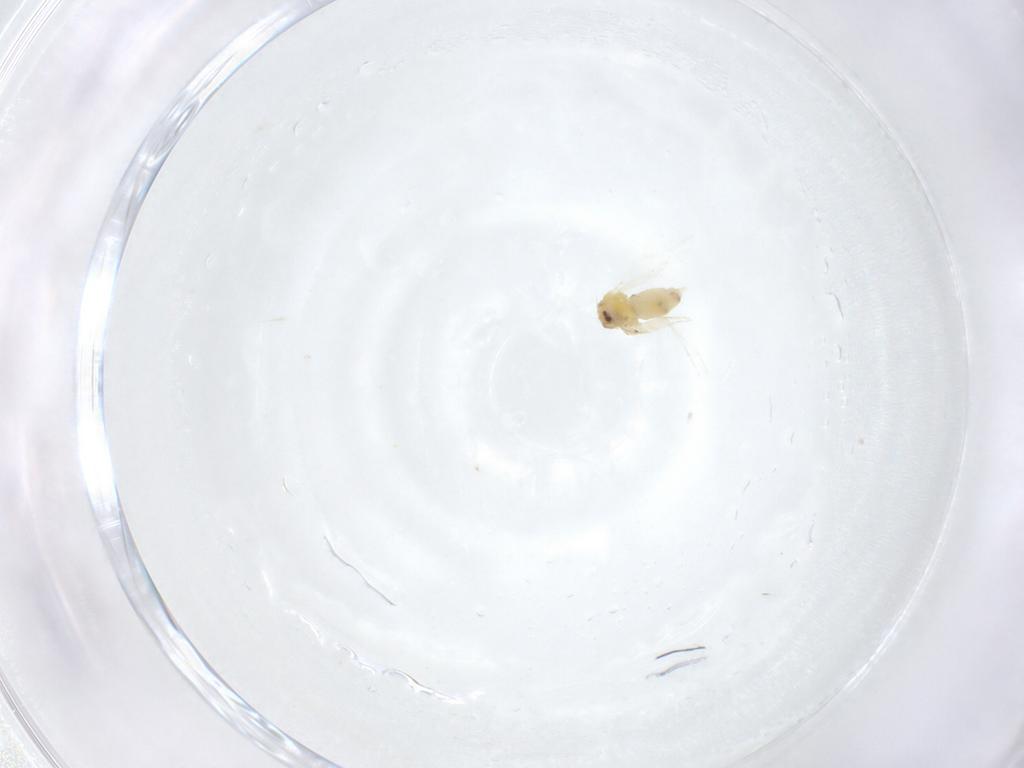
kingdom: Animalia
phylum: Arthropoda
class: Insecta
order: Hemiptera
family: Aleyrodidae
